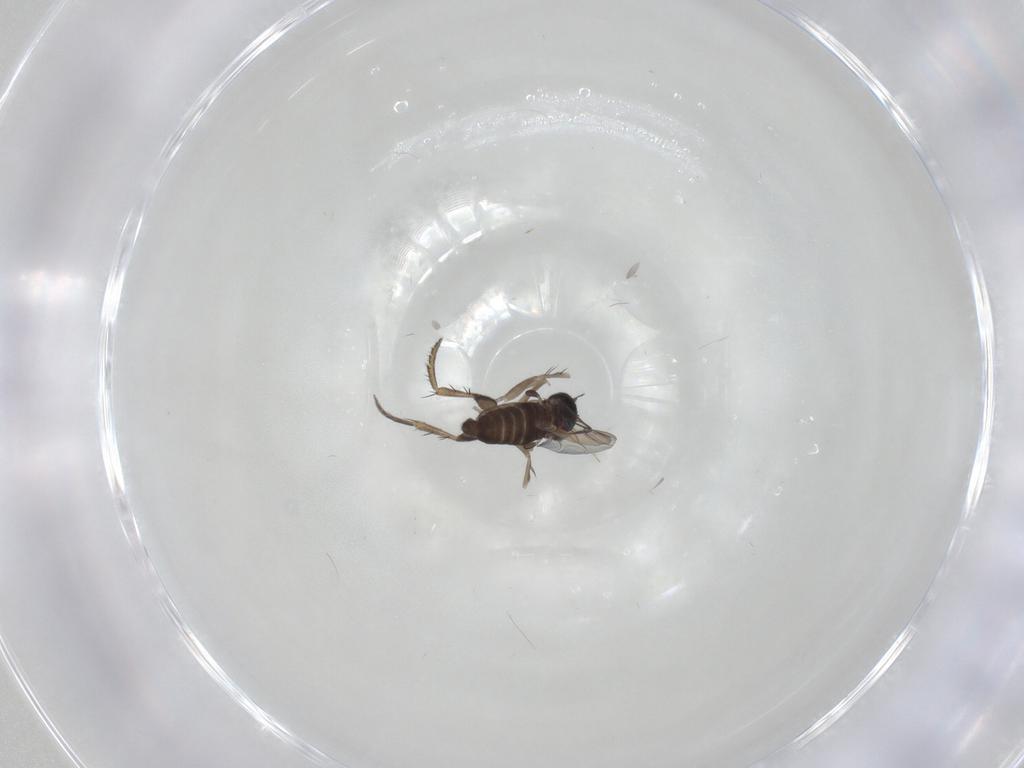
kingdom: Animalia
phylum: Arthropoda
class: Insecta
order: Diptera
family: Phoridae
